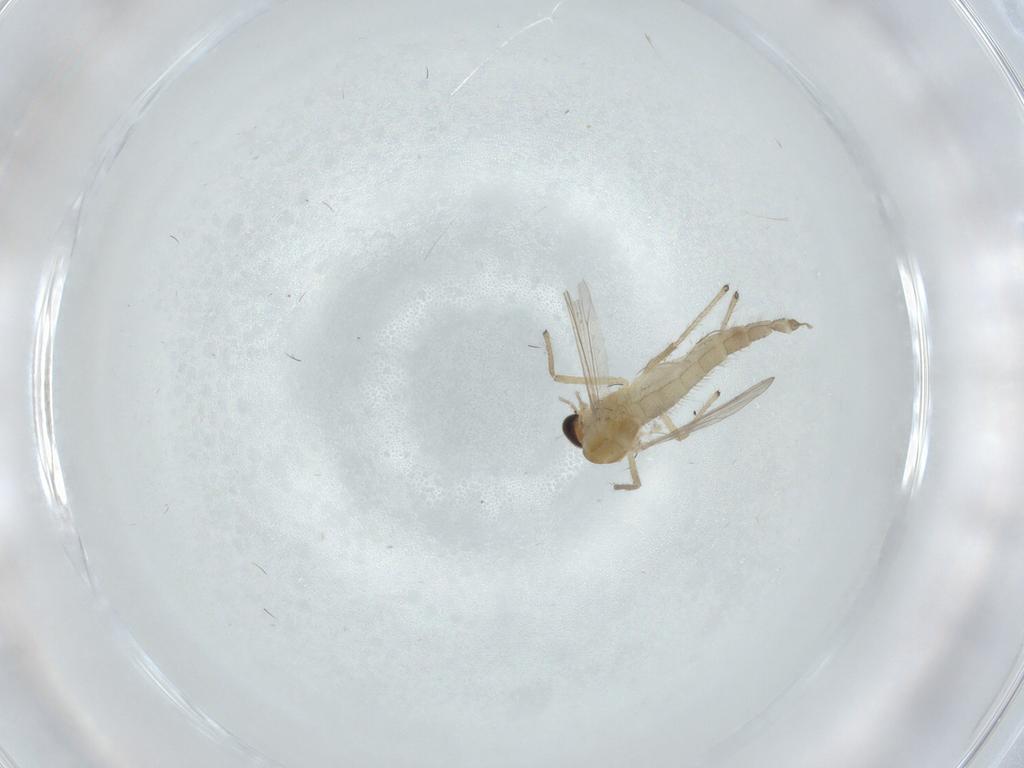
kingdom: Animalia
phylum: Arthropoda
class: Insecta
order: Diptera
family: Chironomidae
